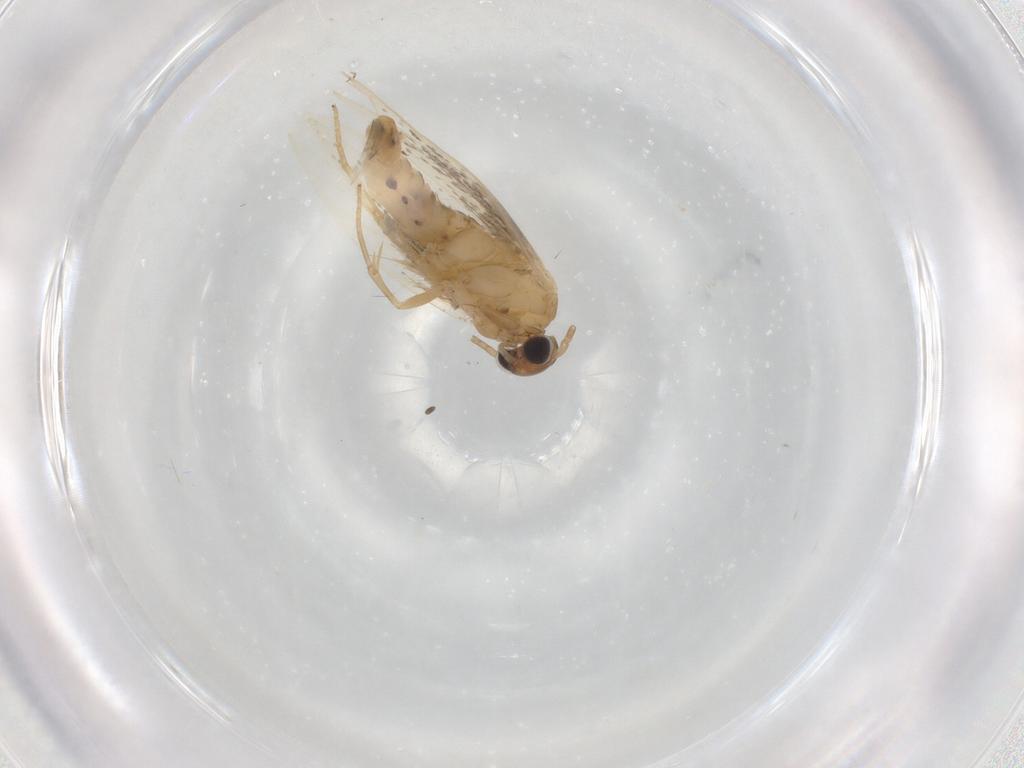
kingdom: Animalia
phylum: Arthropoda
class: Insecta
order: Lepidoptera
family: Elachistidae
